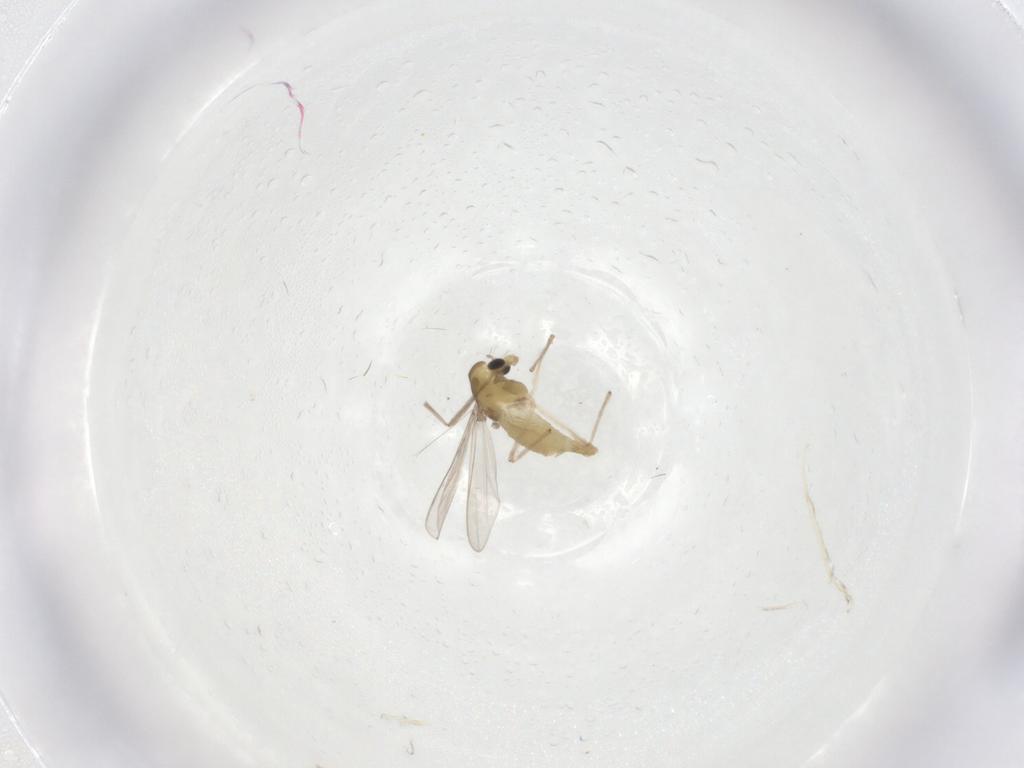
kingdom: Animalia
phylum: Arthropoda
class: Insecta
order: Diptera
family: Chironomidae
